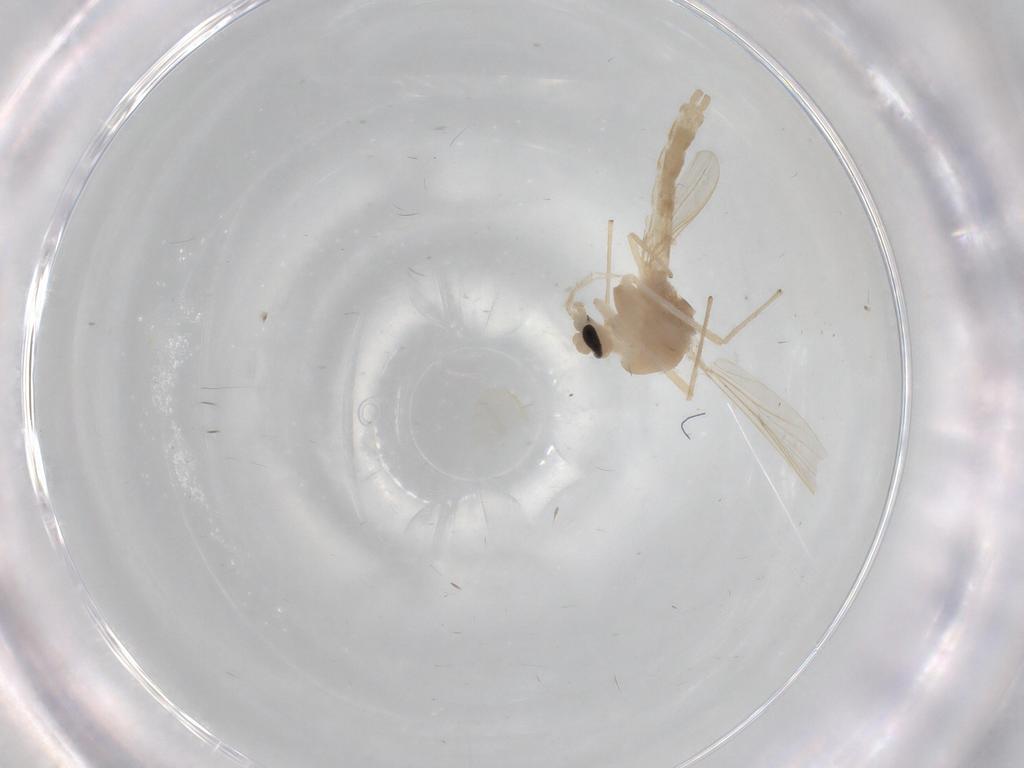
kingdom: Animalia
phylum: Arthropoda
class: Insecta
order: Diptera
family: Chironomidae
